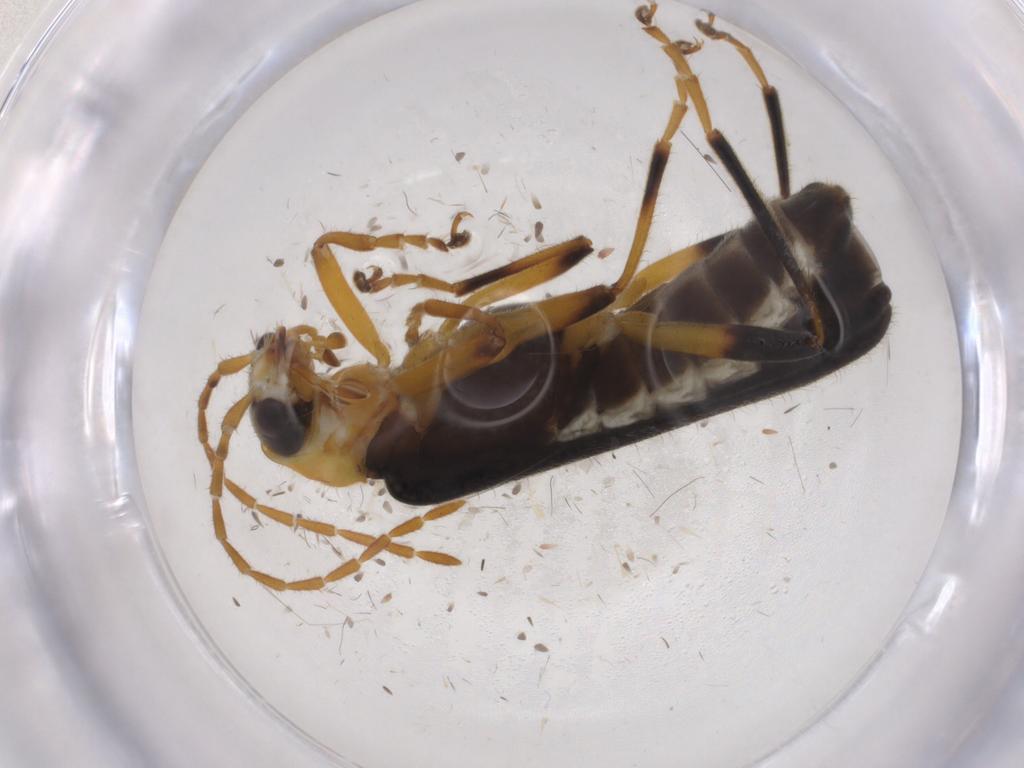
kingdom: Animalia
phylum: Arthropoda
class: Insecta
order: Coleoptera
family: Cantharidae
